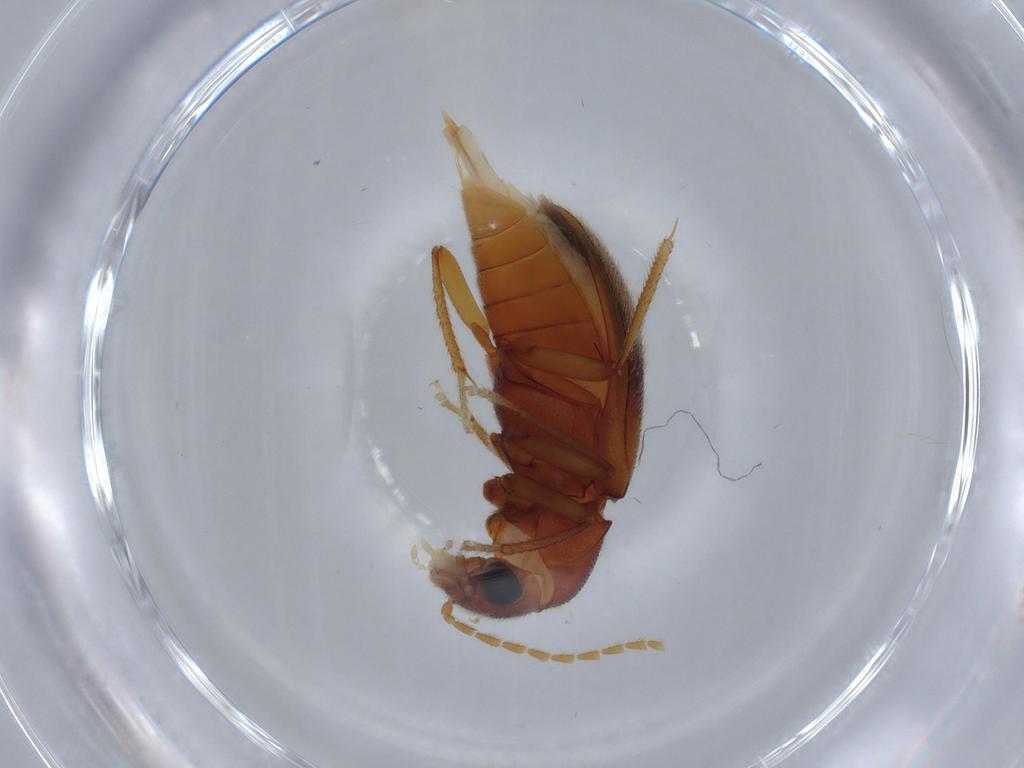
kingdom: Animalia
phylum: Arthropoda
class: Insecta
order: Coleoptera
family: Ptilodactylidae
